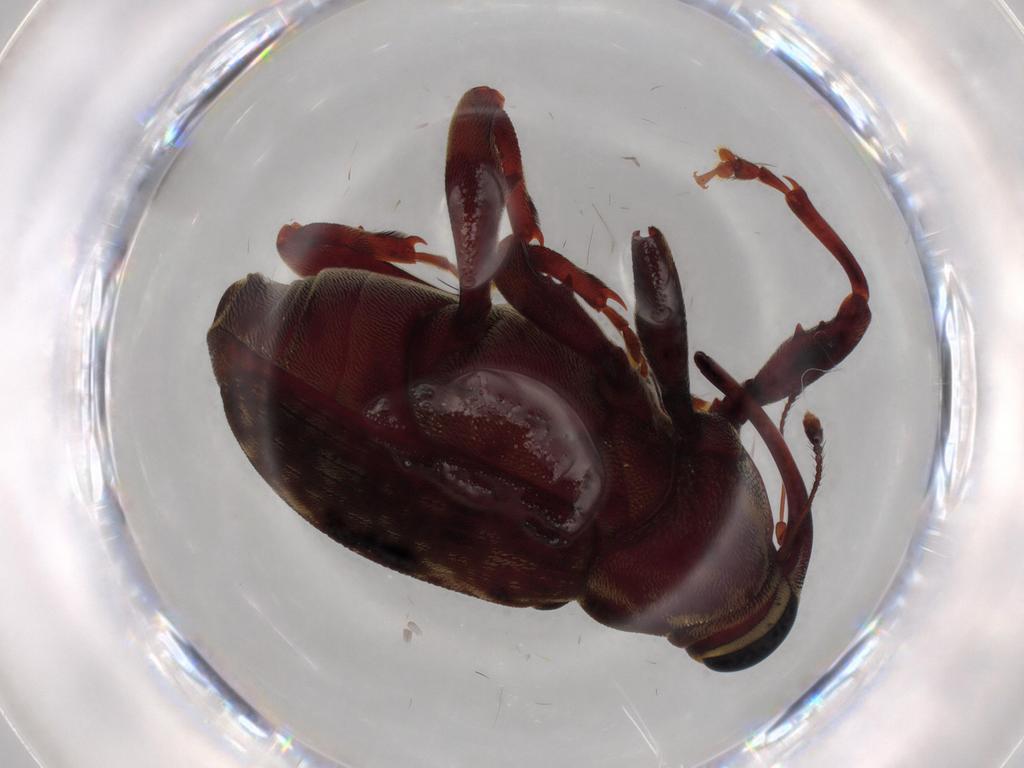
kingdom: Animalia
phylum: Arthropoda
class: Insecta
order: Coleoptera
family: Curculionidae
